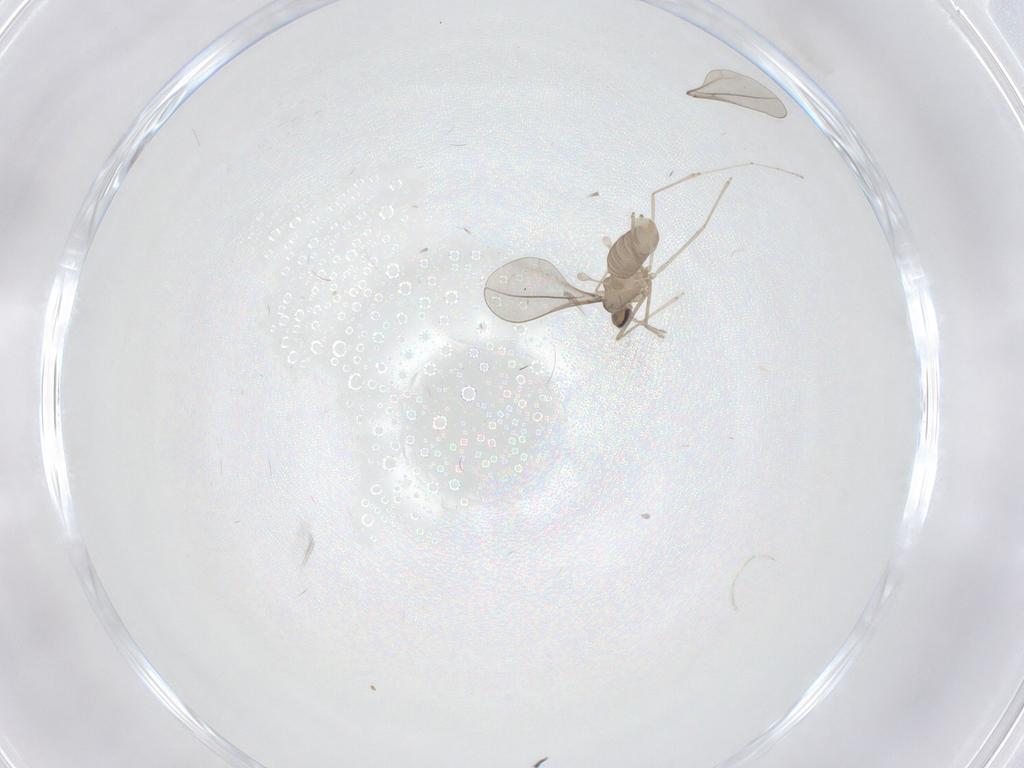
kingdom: Animalia
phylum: Arthropoda
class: Insecta
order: Diptera
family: Cecidomyiidae
